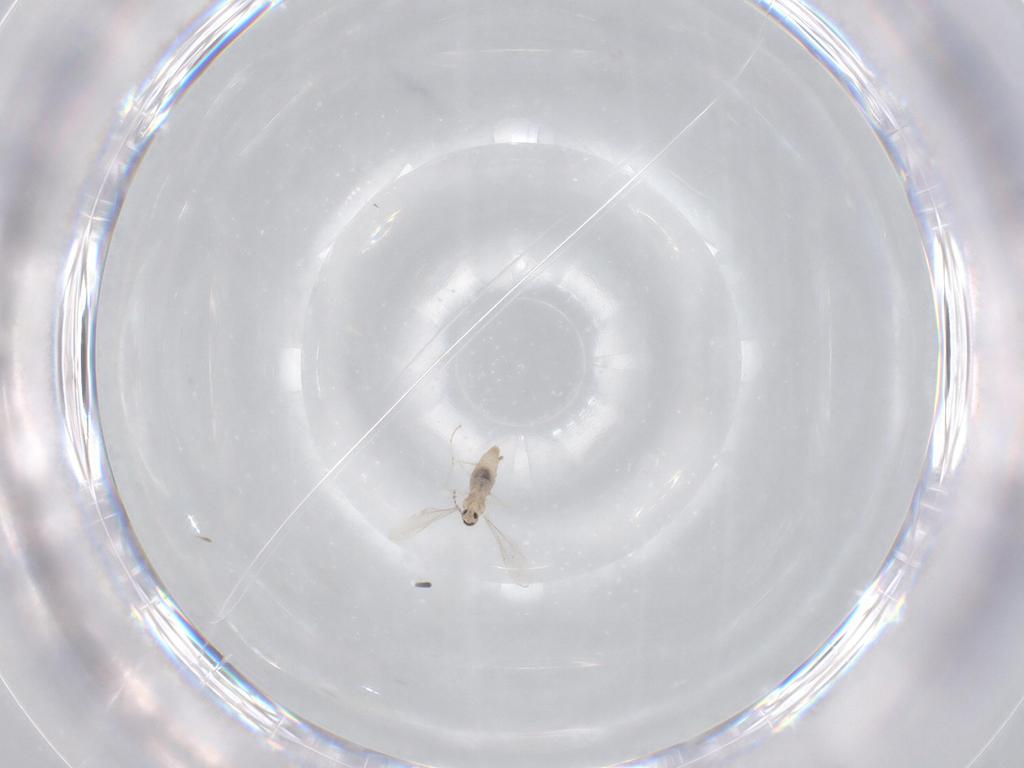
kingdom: Animalia
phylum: Arthropoda
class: Insecta
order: Diptera
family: Cecidomyiidae
